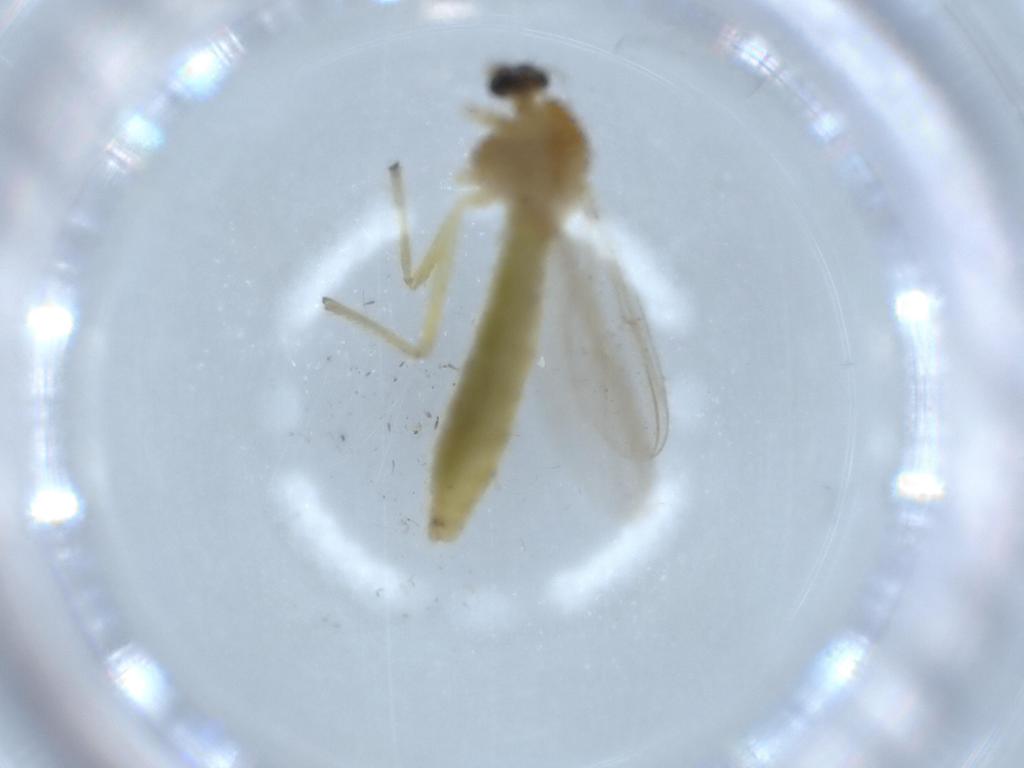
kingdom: Animalia
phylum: Arthropoda
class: Insecta
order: Diptera
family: Chironomidae
